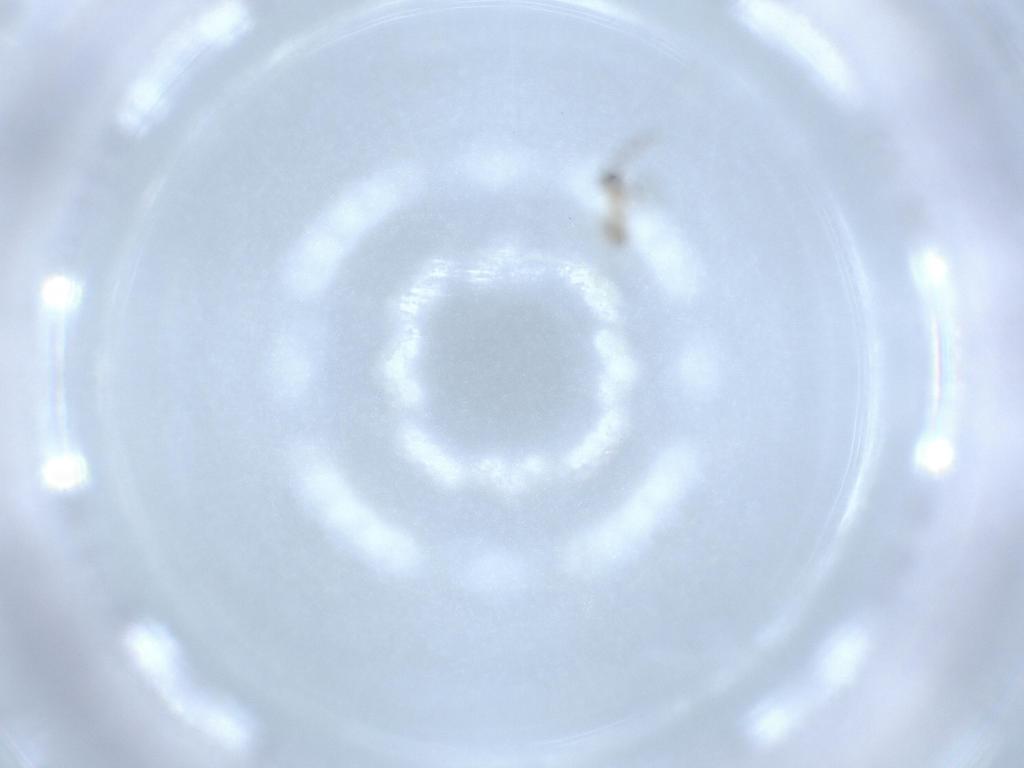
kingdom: Animalia
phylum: Arthropoda
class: Insecta
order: Diptera
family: Cecidomyiidae
